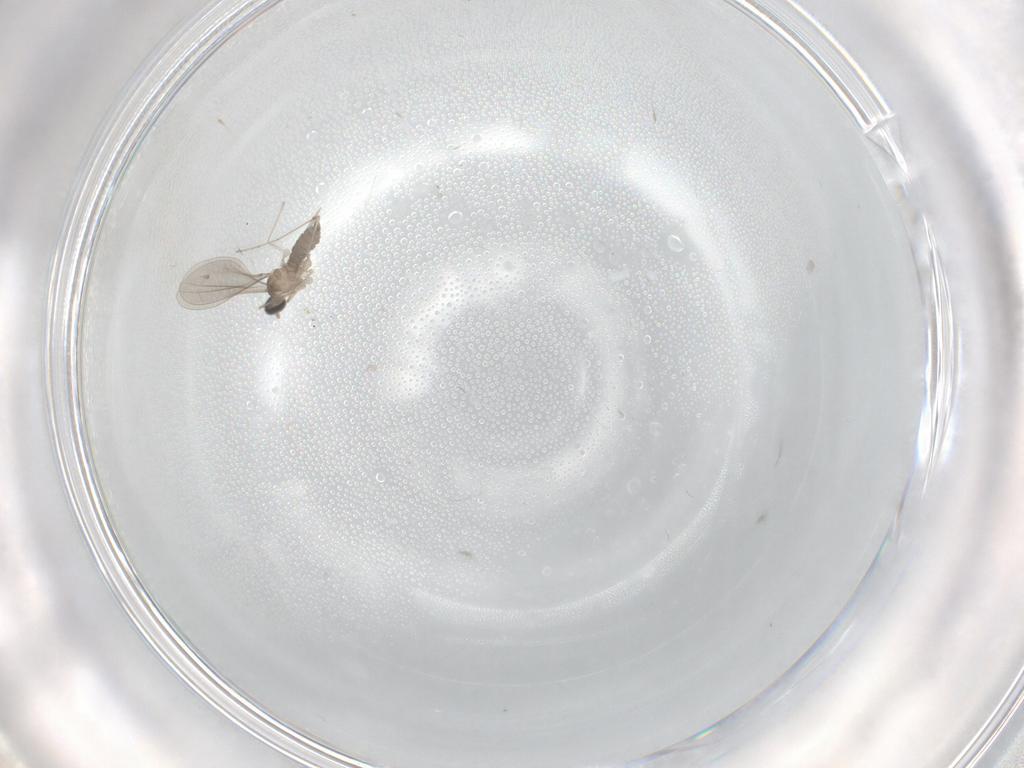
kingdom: Animalia
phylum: Arthropoda
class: Insecta
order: Diptera
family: Cecidomyiidae
